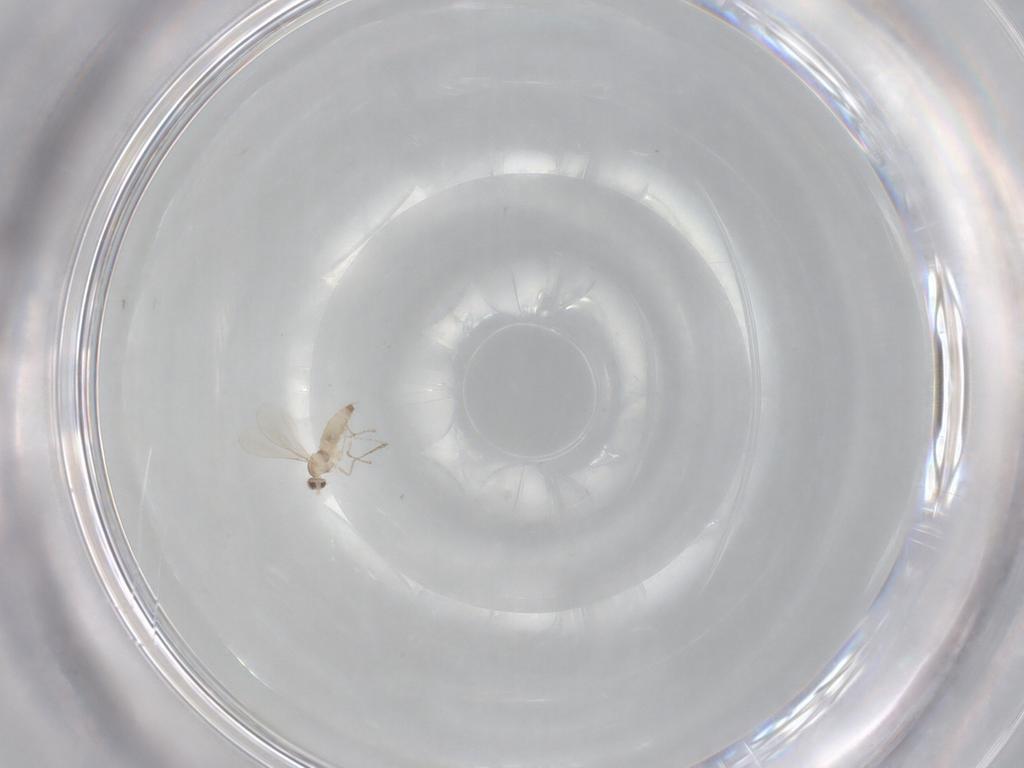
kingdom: Animalia
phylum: Arthropoda
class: Insecta
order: Diptera
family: Cecidomyiidae
